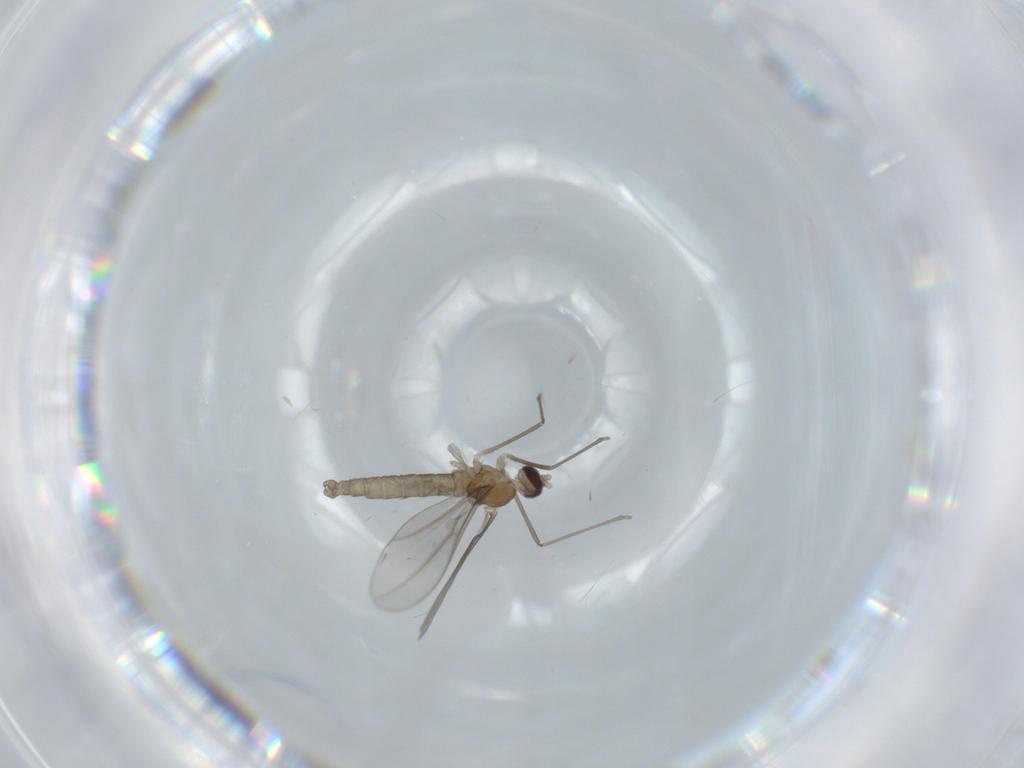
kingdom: Animalia
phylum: Arthropoda
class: Insecta
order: Diptera
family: Cecidomyiidae
